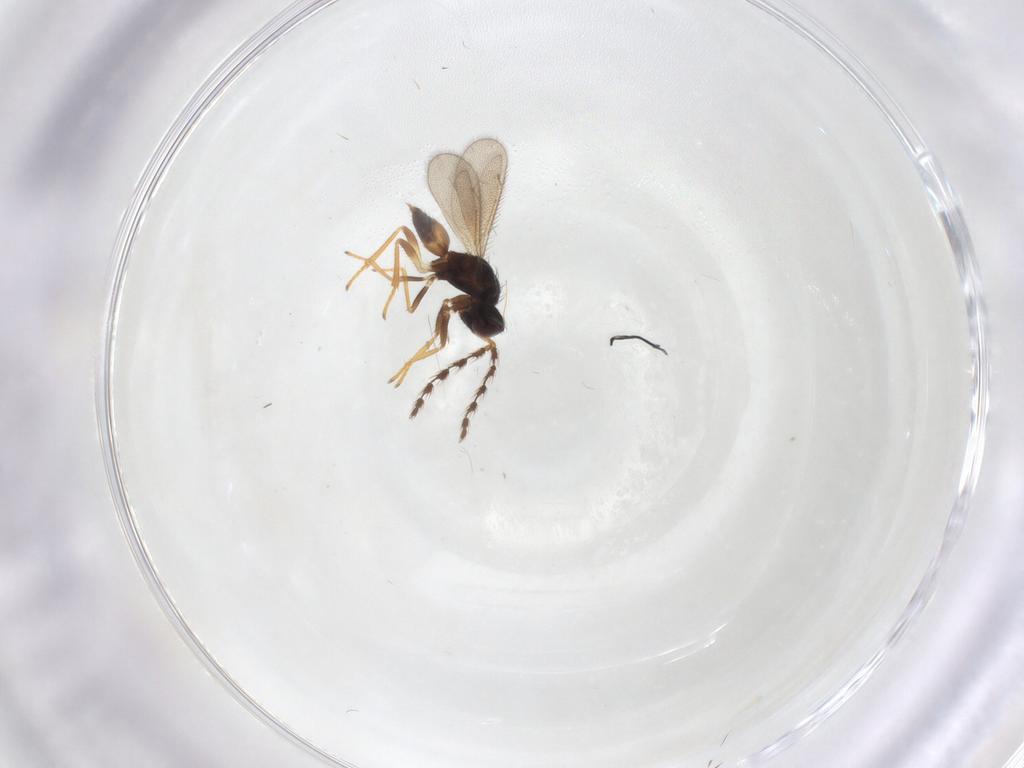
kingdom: Animalia
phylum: Arthropoda
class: Insecta
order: Hymenoptera
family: Eulophidae
